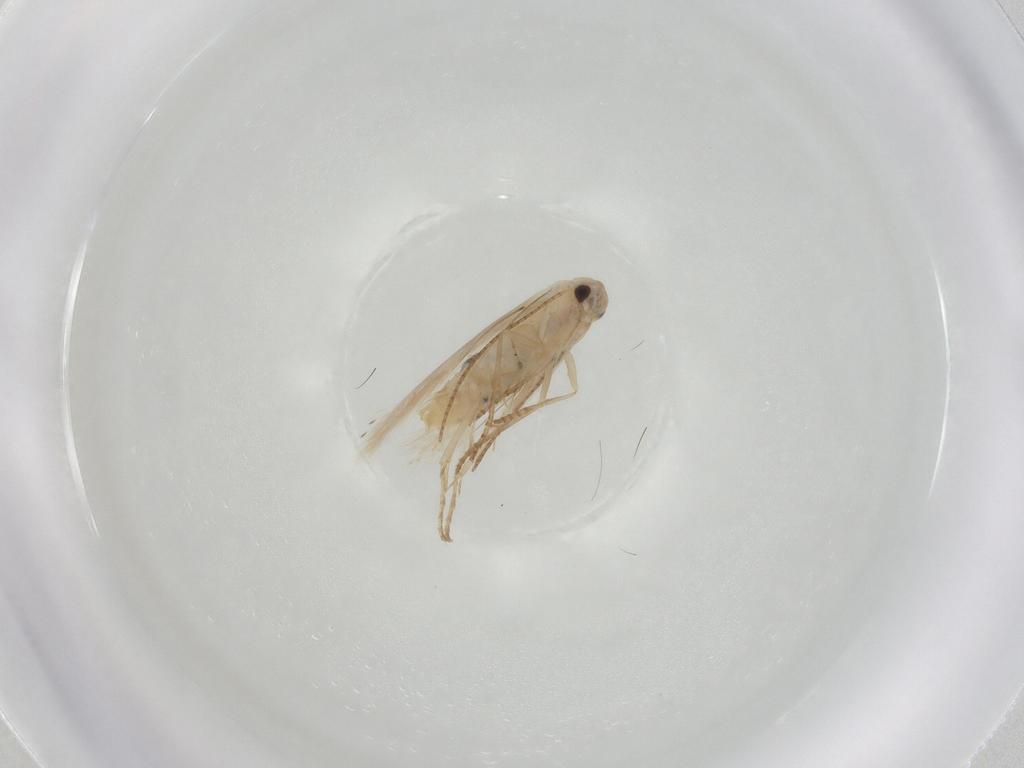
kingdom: Animalia
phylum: Arthropoda
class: Insecta
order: Lepidoptera
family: Bucculatricidae
